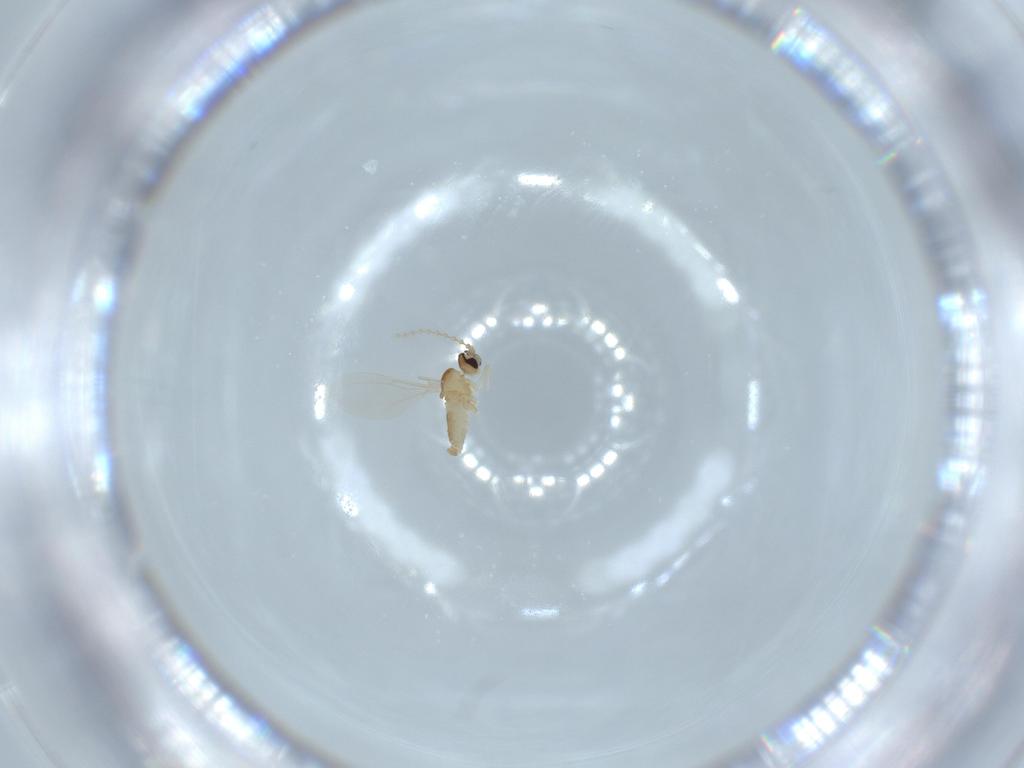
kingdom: Animalia
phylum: Arthropoda
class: Insecta
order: Diptera
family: Cecidomyiidae
